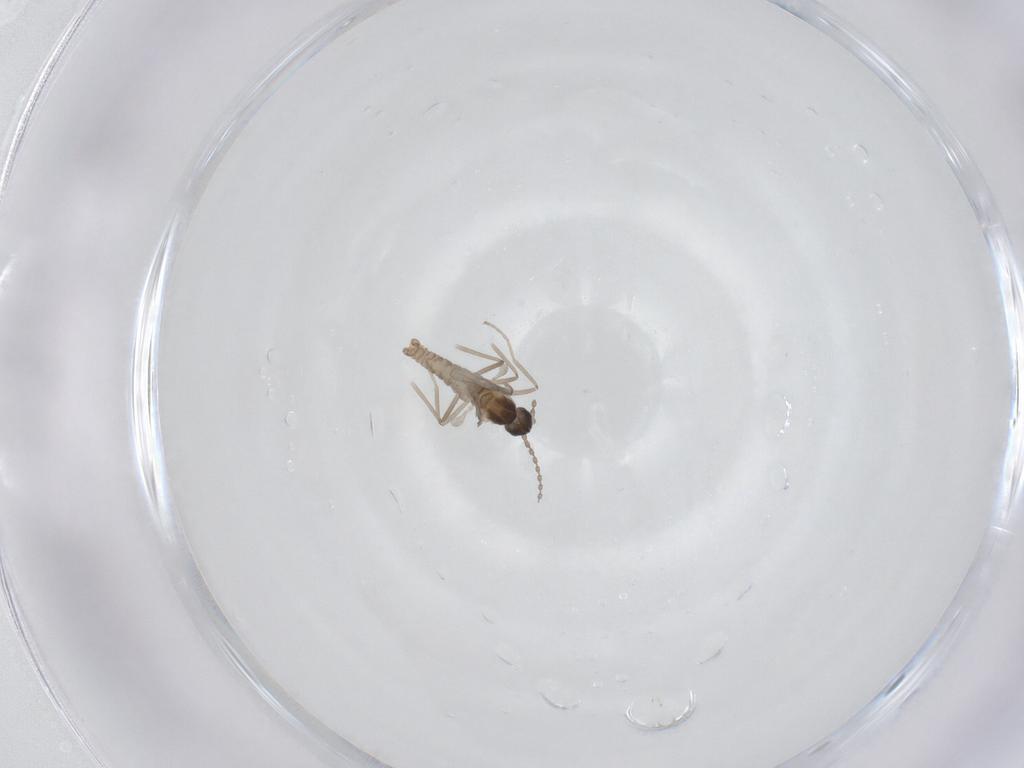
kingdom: Animalia
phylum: Arthropoda
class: Insecta
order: Diptera
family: Cecidomyiidae
